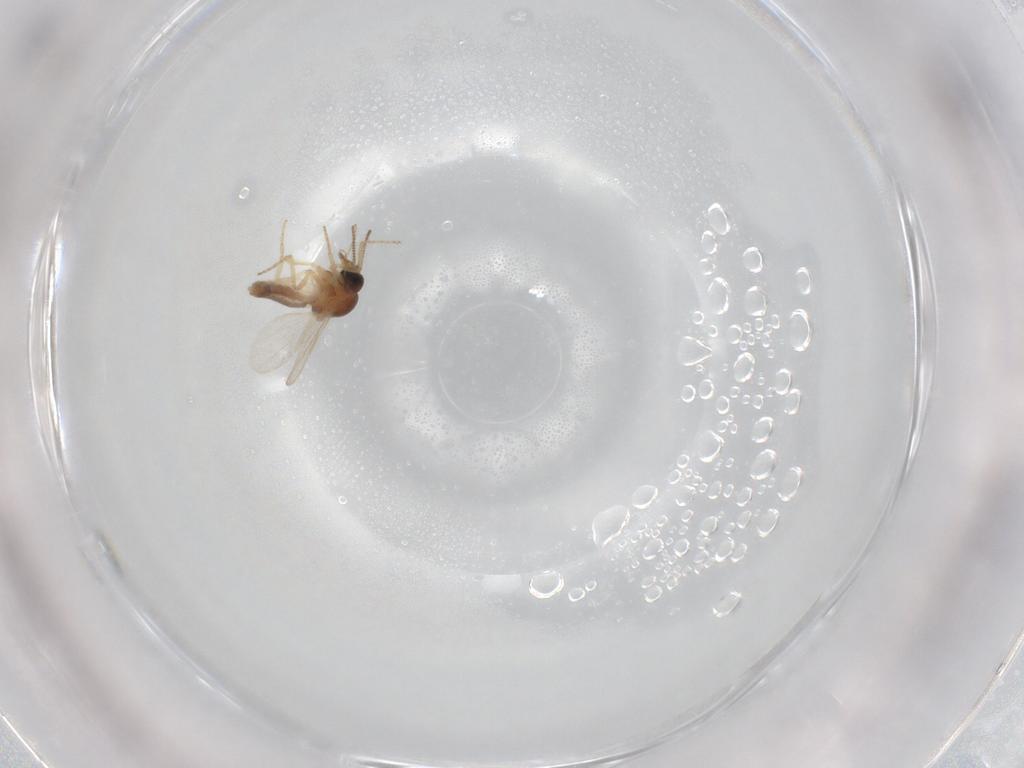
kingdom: Animalia
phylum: Arthropoda
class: Insecta
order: Diptera
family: Ceratopogonidae
